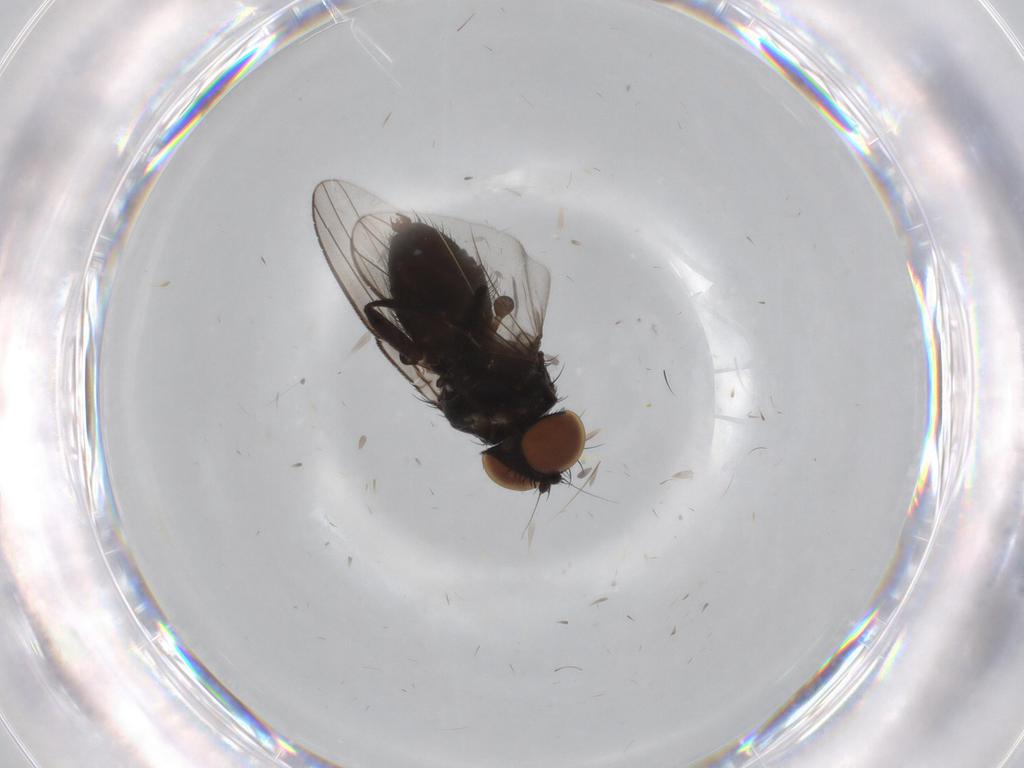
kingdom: Animalia
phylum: Arthropoda
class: Insecta
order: Diptera
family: Milichiidae
